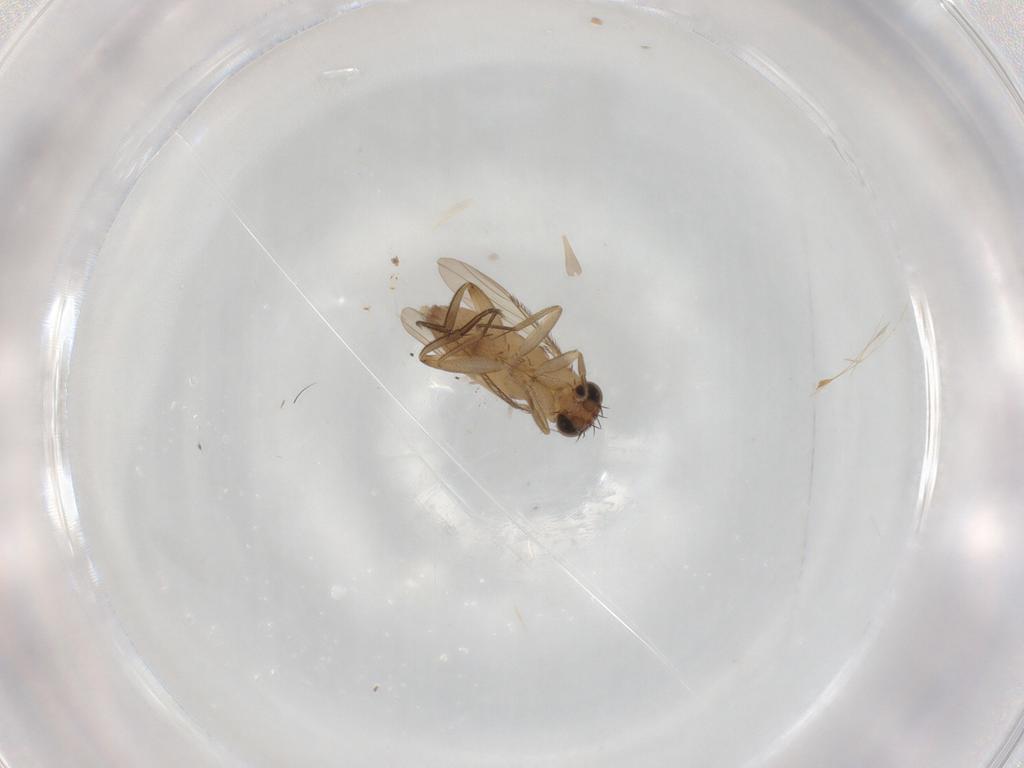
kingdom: Animalia
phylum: Arthropoda
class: Insecta
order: Diptera
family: Phoridae
